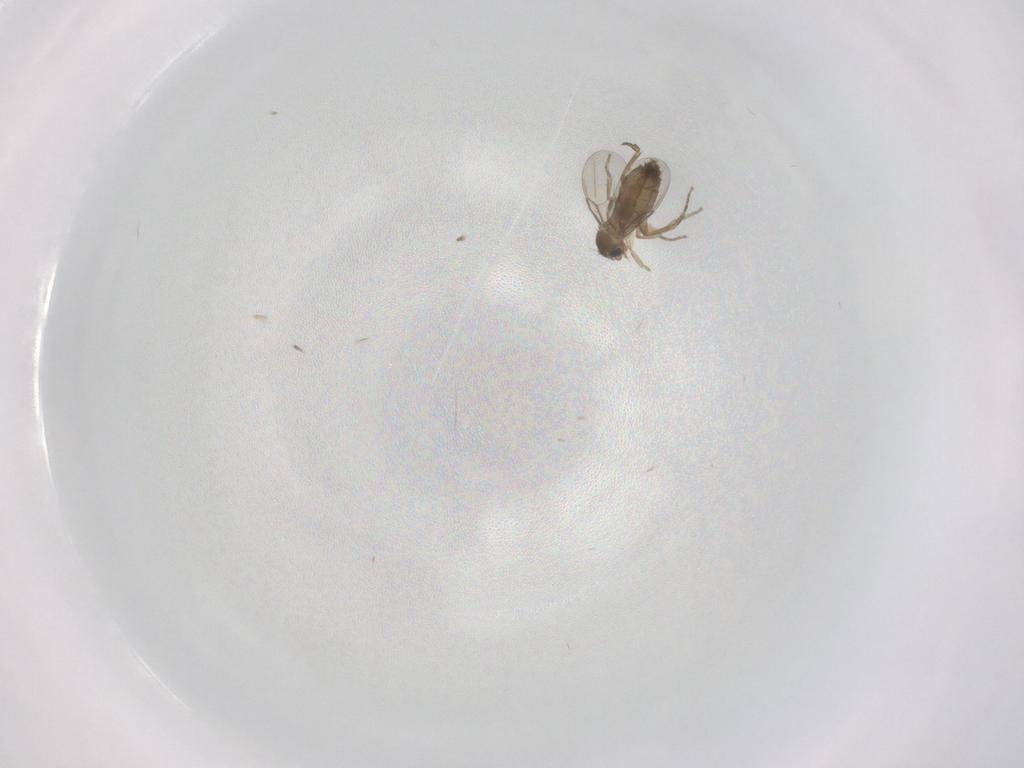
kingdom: Animalia
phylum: Arthropoda
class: Insecta
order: Diptera
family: Phoridae
